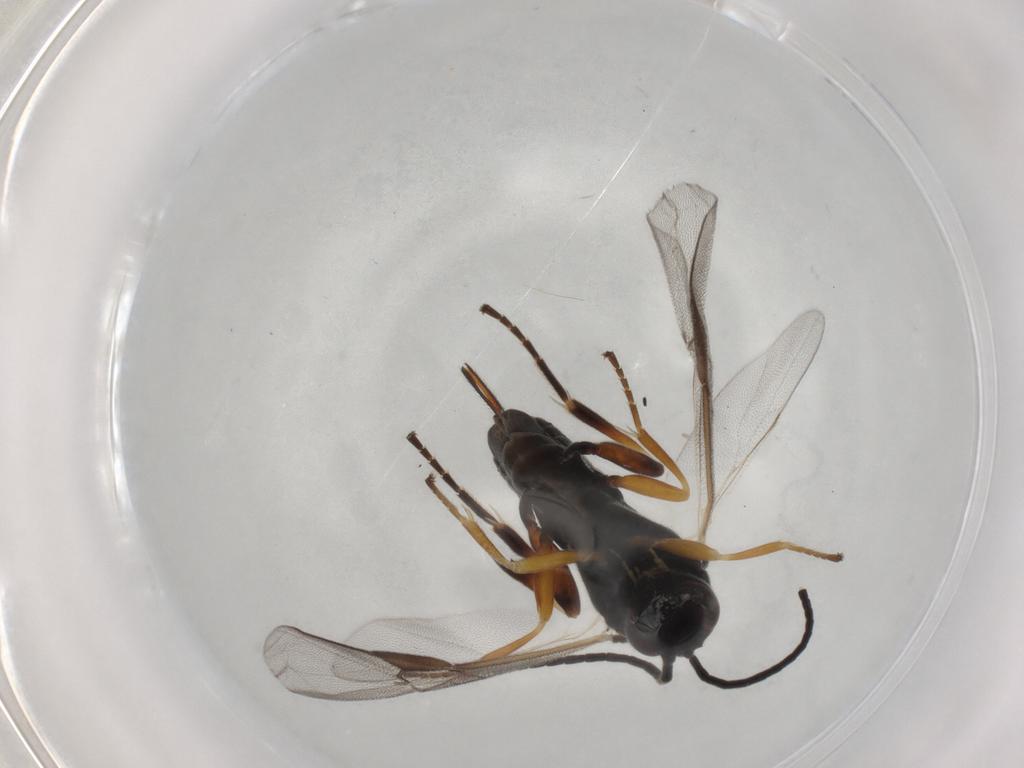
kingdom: Animalia
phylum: Arthropoda
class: Insecta
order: Hymenoptera
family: Braconidae
